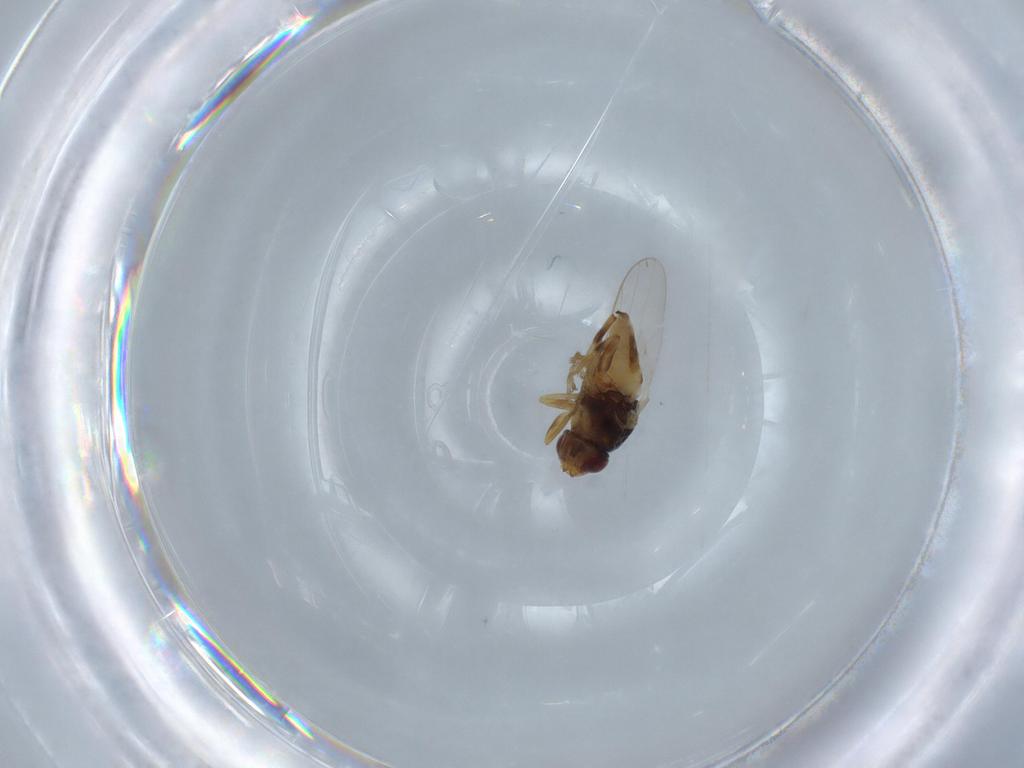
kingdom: Animalia
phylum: Arthropoda
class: Insecta
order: Diptera
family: Chloropidae
